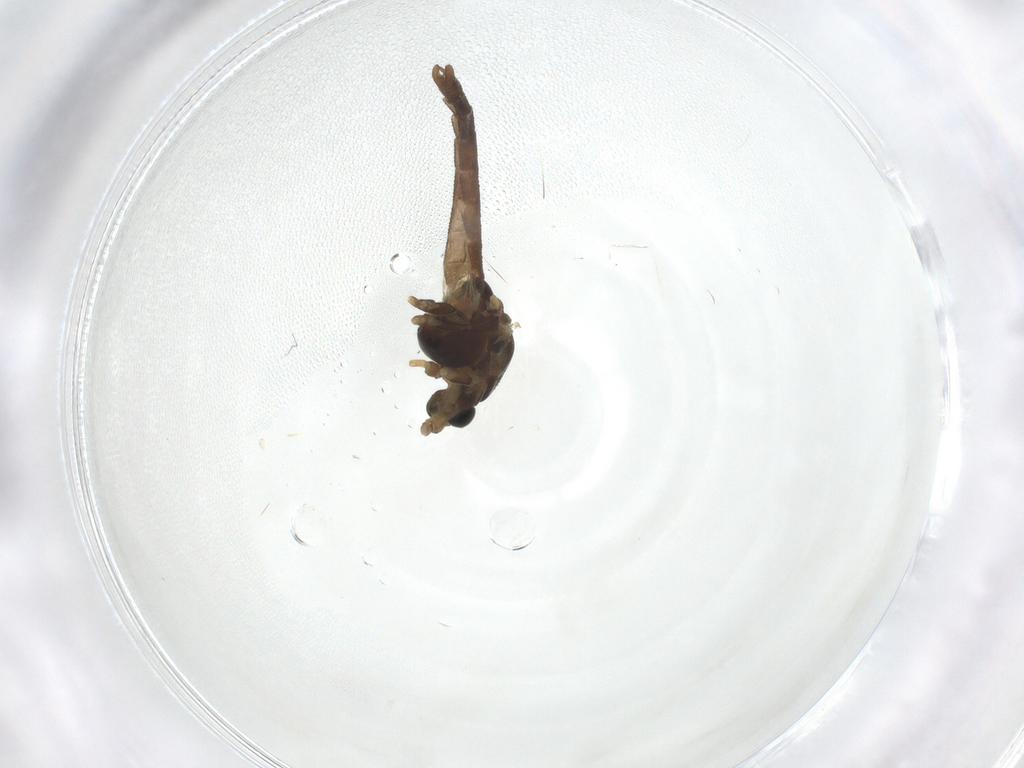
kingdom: Animalia
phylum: Arthropoda
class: Insecta
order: Diptera
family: Chironomidae
